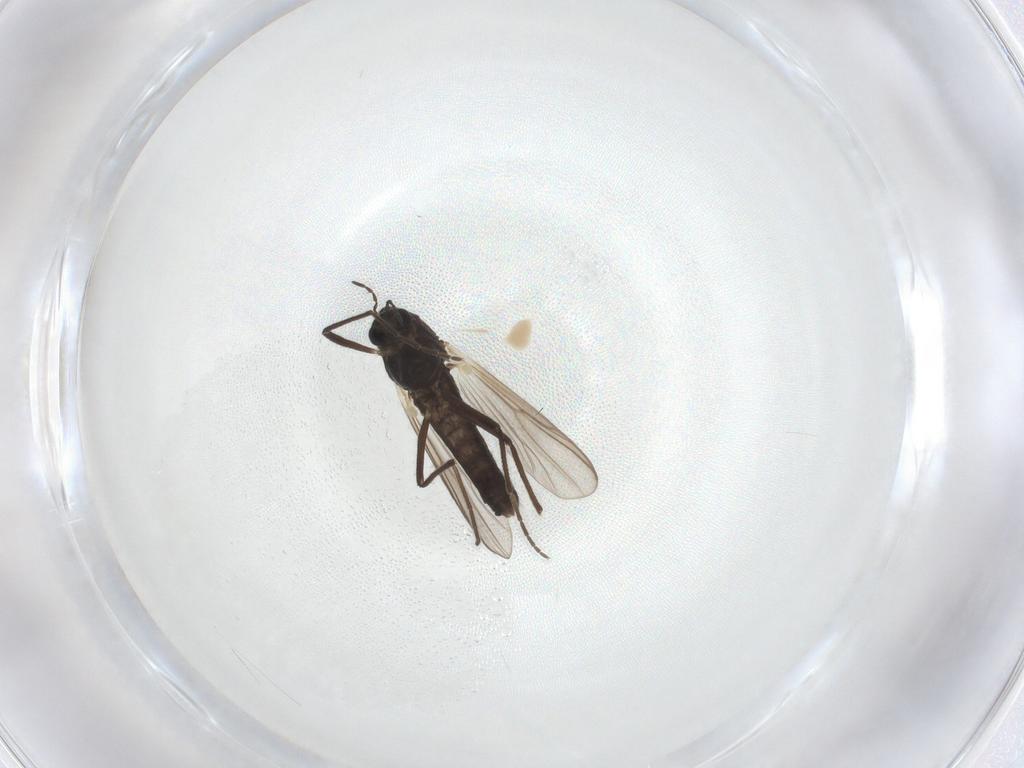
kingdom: Animalia
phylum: Arthropoda
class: Insecta
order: Diptera
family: Chironomidae
